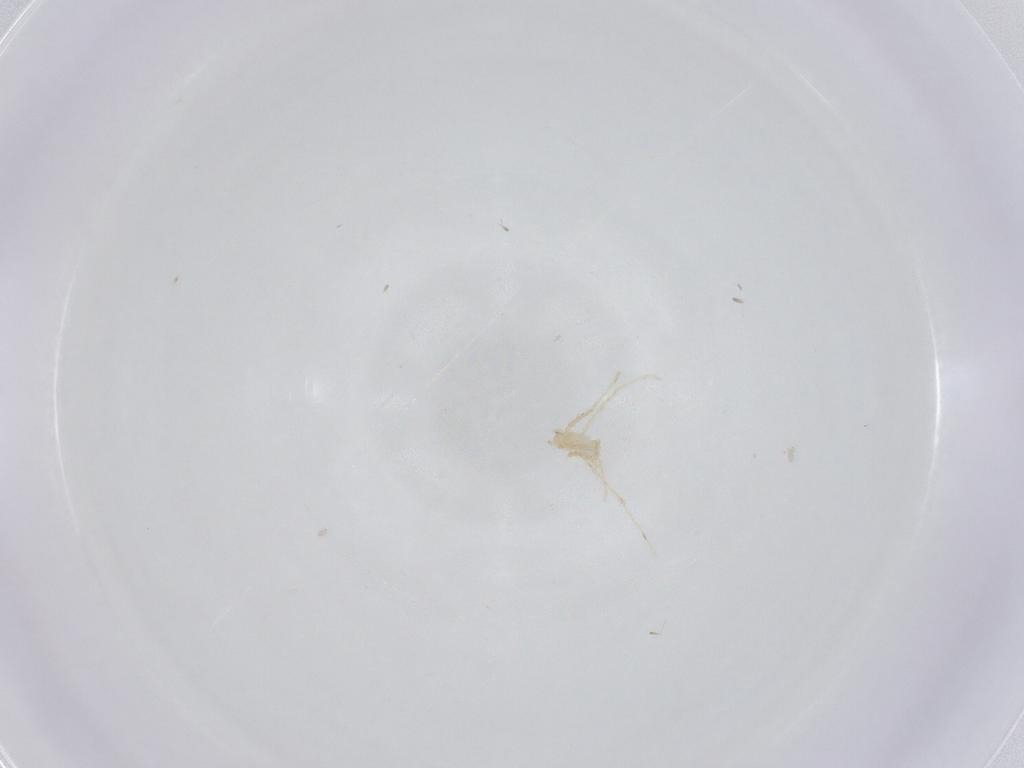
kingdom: Animalia
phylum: Arthropoda
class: Arachnida
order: Trombidiformes
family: Erythraeidae
